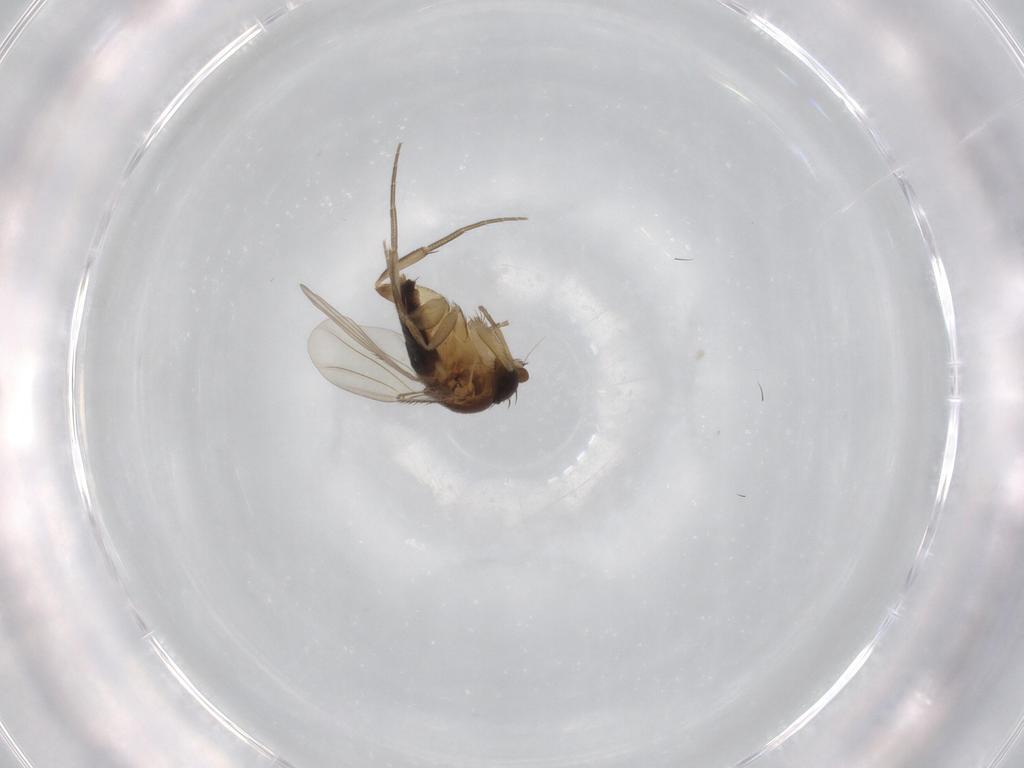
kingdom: Animalia
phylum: Arthropoda
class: Insecta
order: Diptera
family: Phoridae
